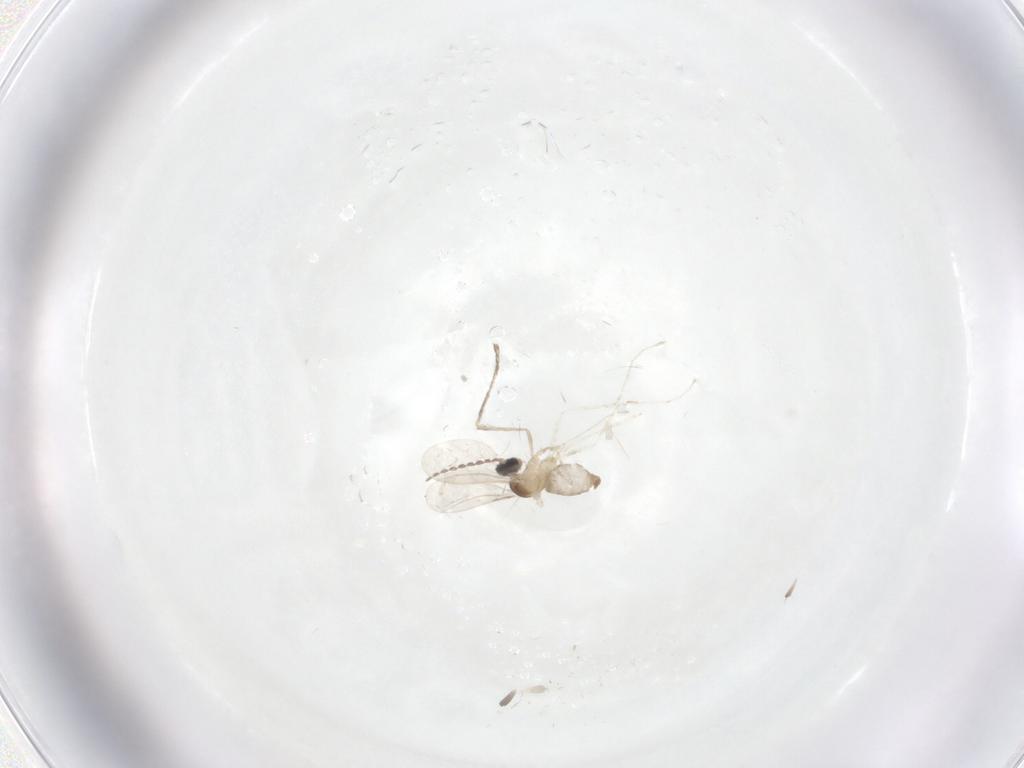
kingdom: Animalia
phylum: Arthropoda
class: Insecta
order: Diptera
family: Cecidomyiidae
